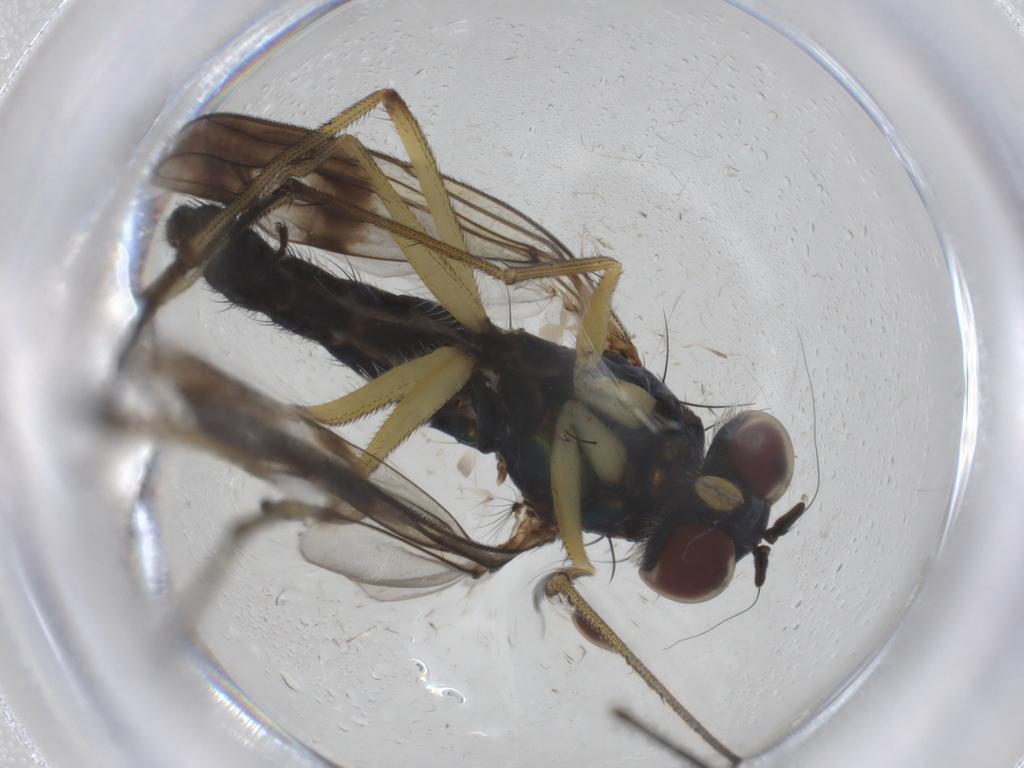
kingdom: Animalia
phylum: Arthropoda
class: Insecta
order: Diptera
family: Dolichopodidae
